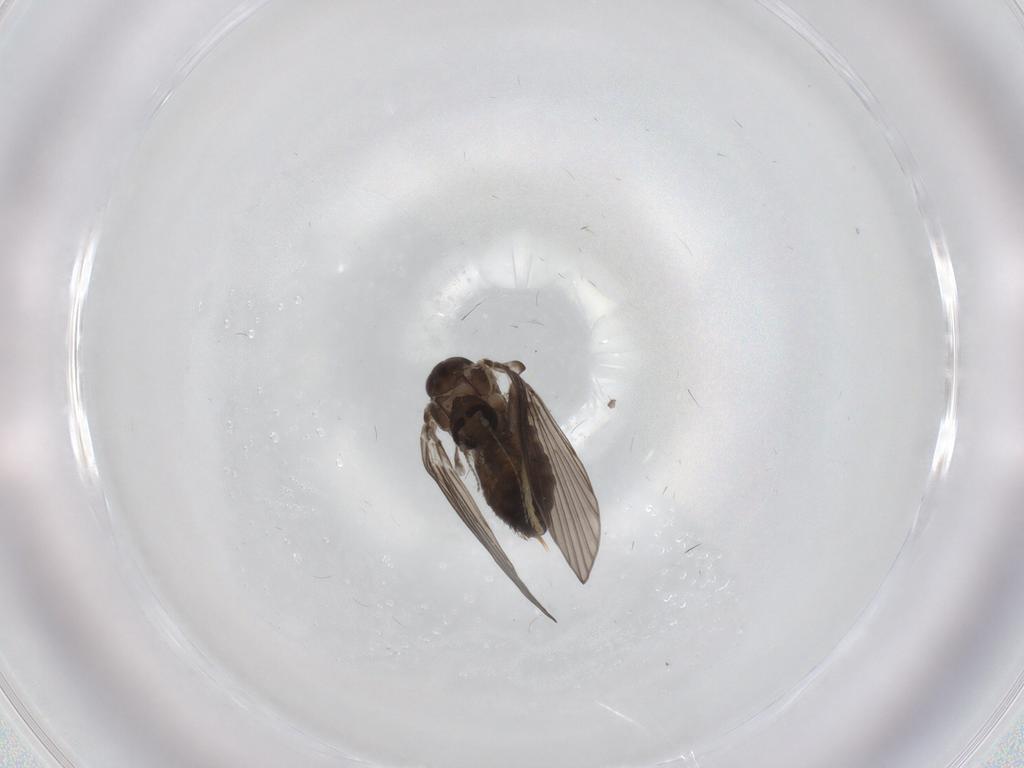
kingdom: Animalia
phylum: Arthropoda
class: Insecta
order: Diptera
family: Psychodidae
